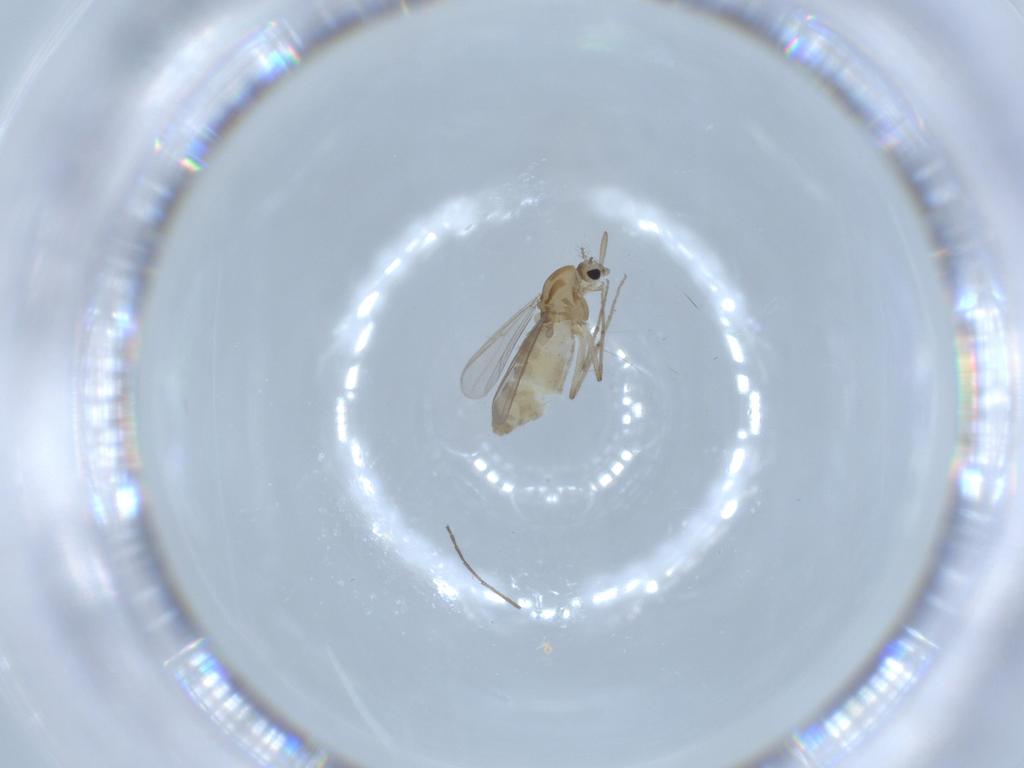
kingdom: Animalia
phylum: Arthropoda
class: Insecta
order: Diptera
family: Chironomidae
